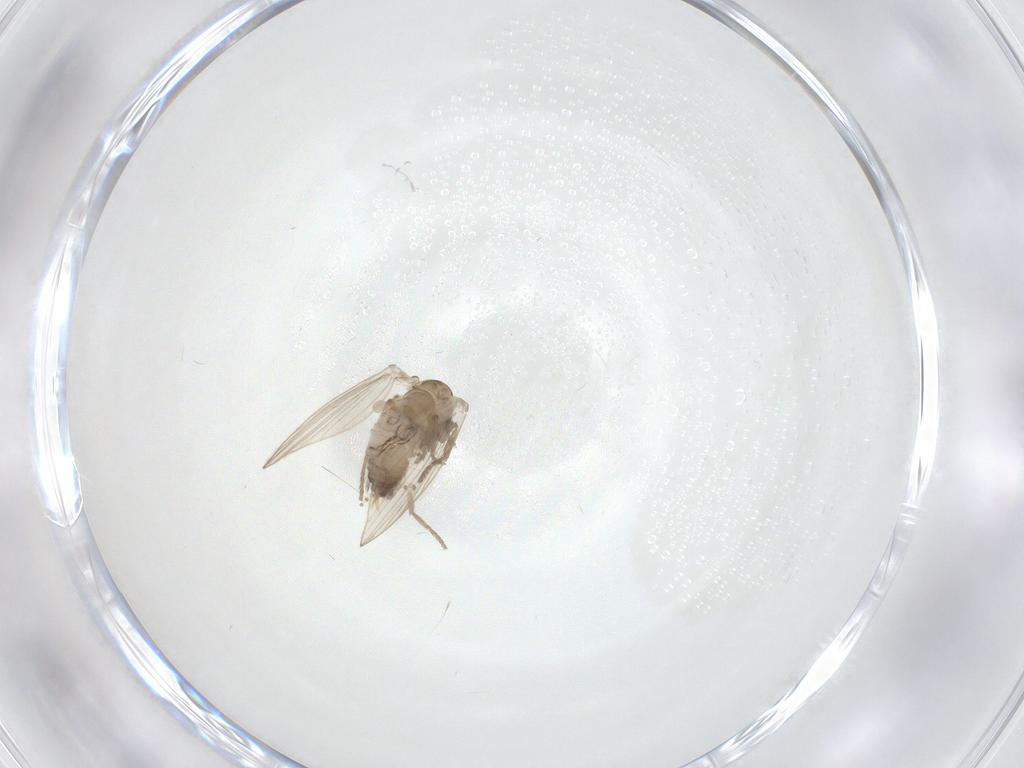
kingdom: Animalia
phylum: Arthropoda
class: Insecta
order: Diptera
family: Psychodidae
